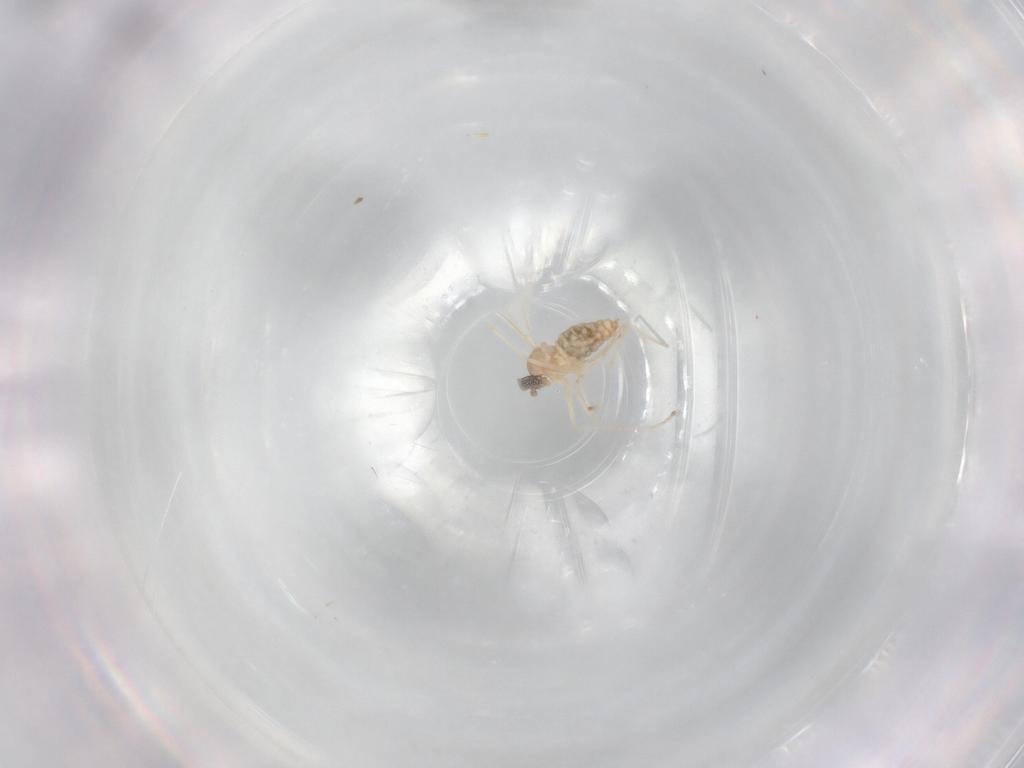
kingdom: Animalia
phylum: Arthropoda
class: Insecta
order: Diptera
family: Cecidomyiidae
